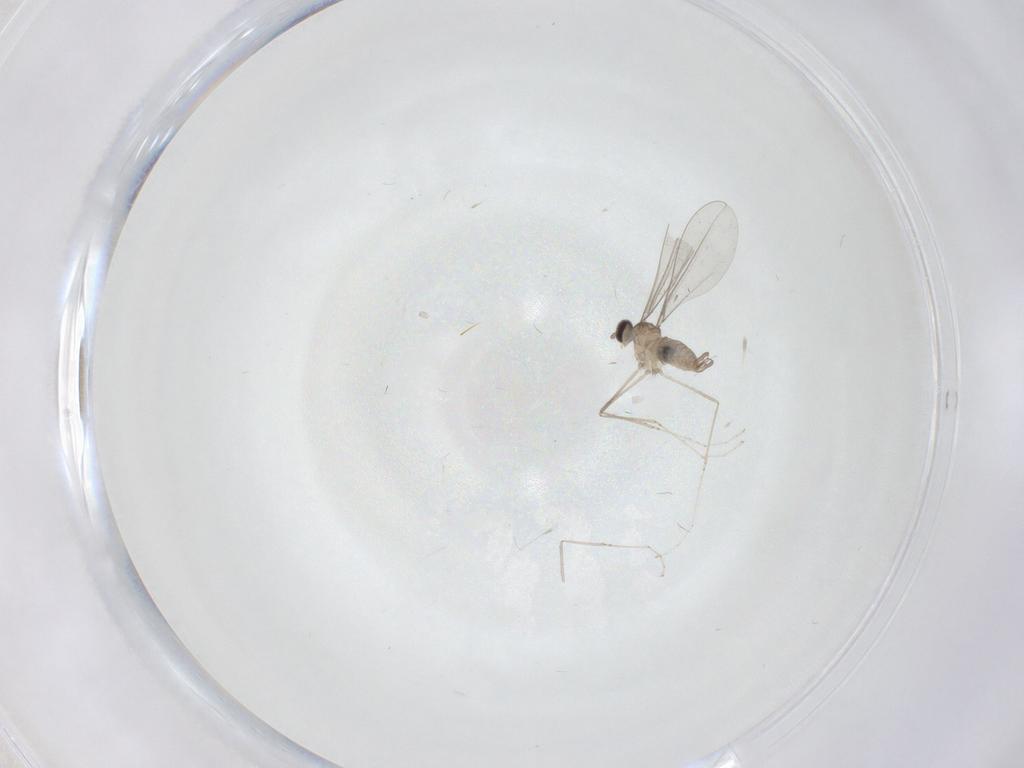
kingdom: Animalia
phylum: Arthropoda
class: Insecta
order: Diptera
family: Cecidomyiidae
